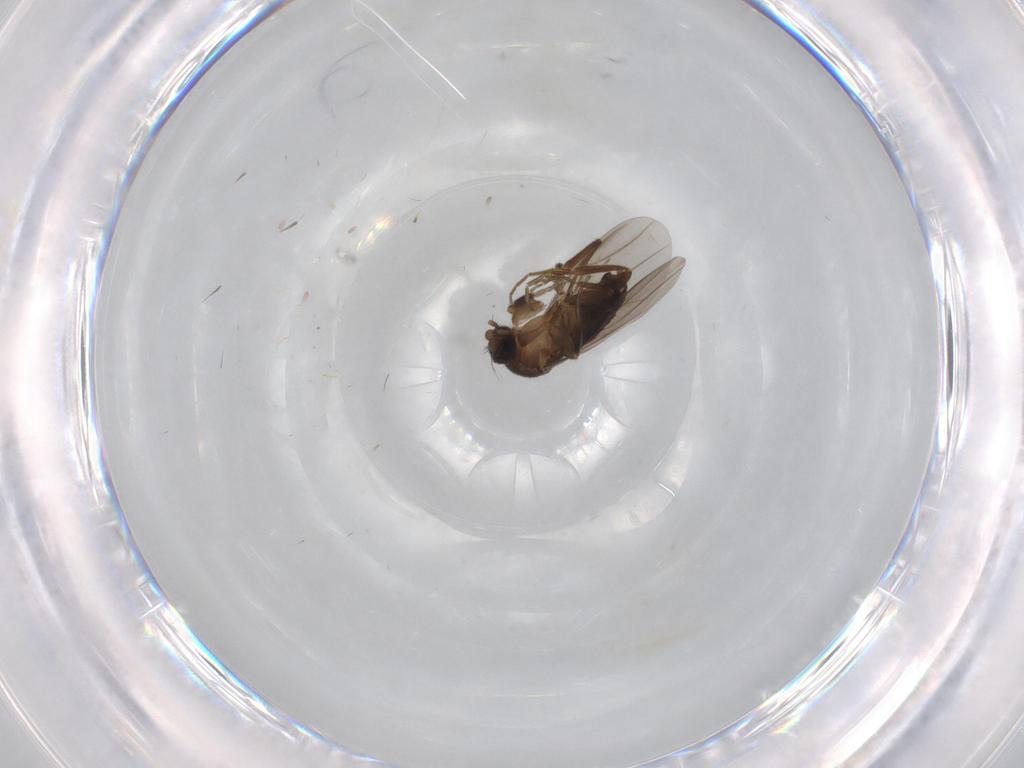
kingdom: Animalia
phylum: Arthropoda
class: Insecta
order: Diptera
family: Phoridae
